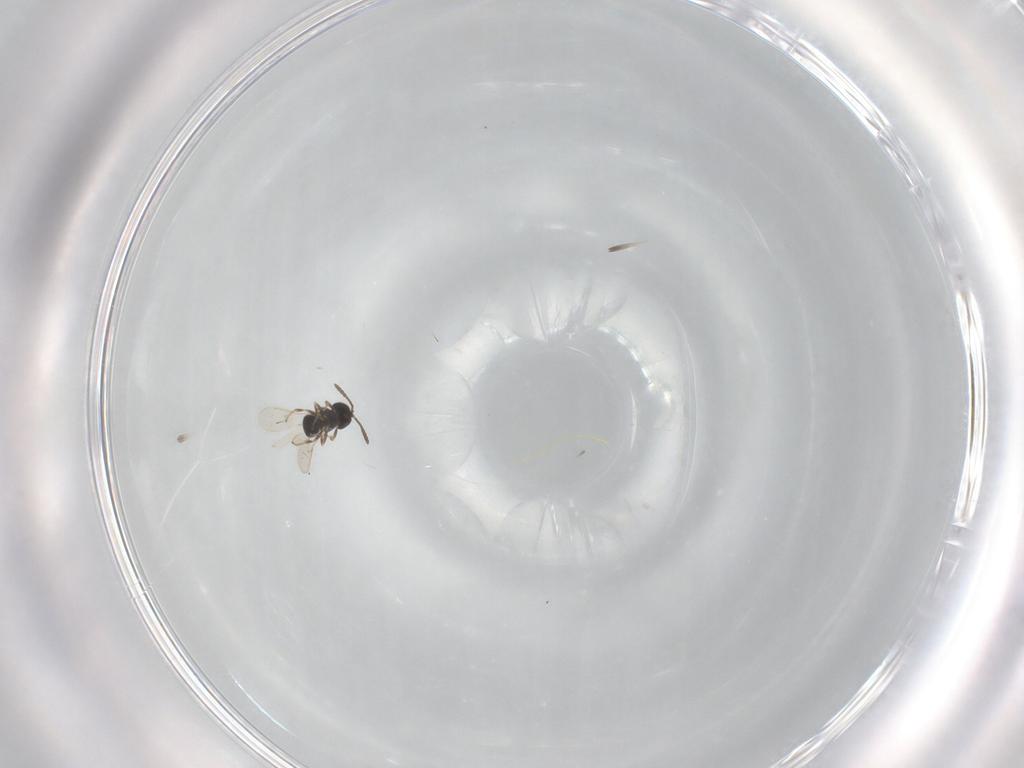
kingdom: Animalia
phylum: Arthropoda
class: Insecta
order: Hymenoptera
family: Scelionidae
